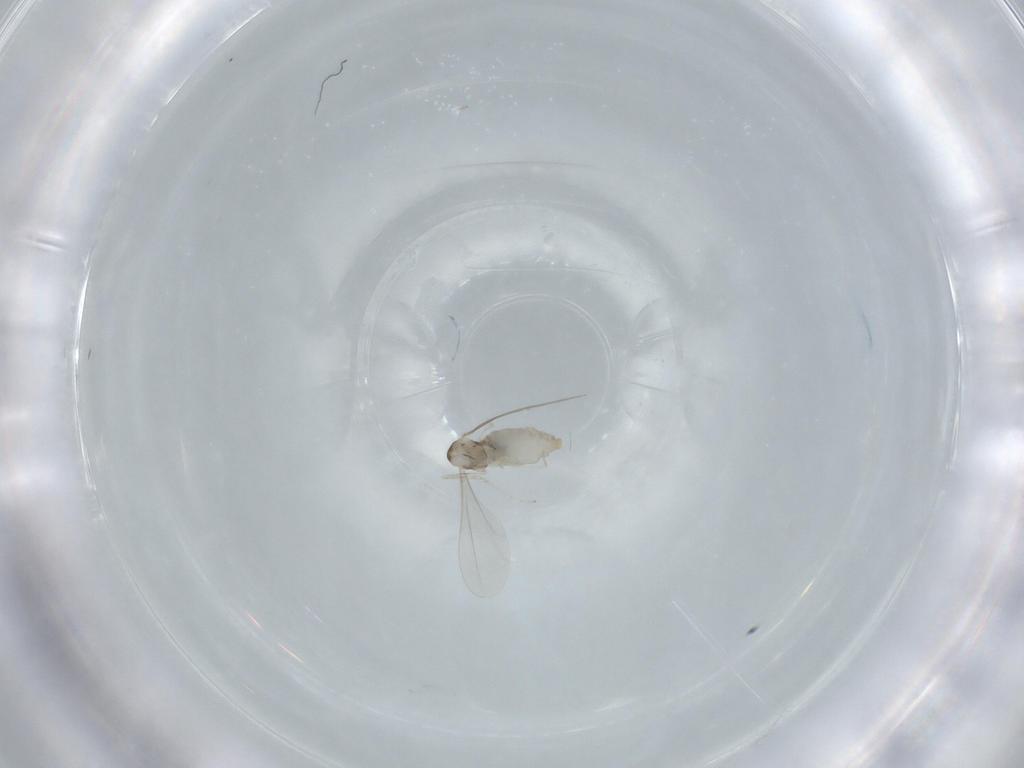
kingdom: Animalia
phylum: Arthropoda
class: Insecta
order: Diptera
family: Cecidomyiidae
